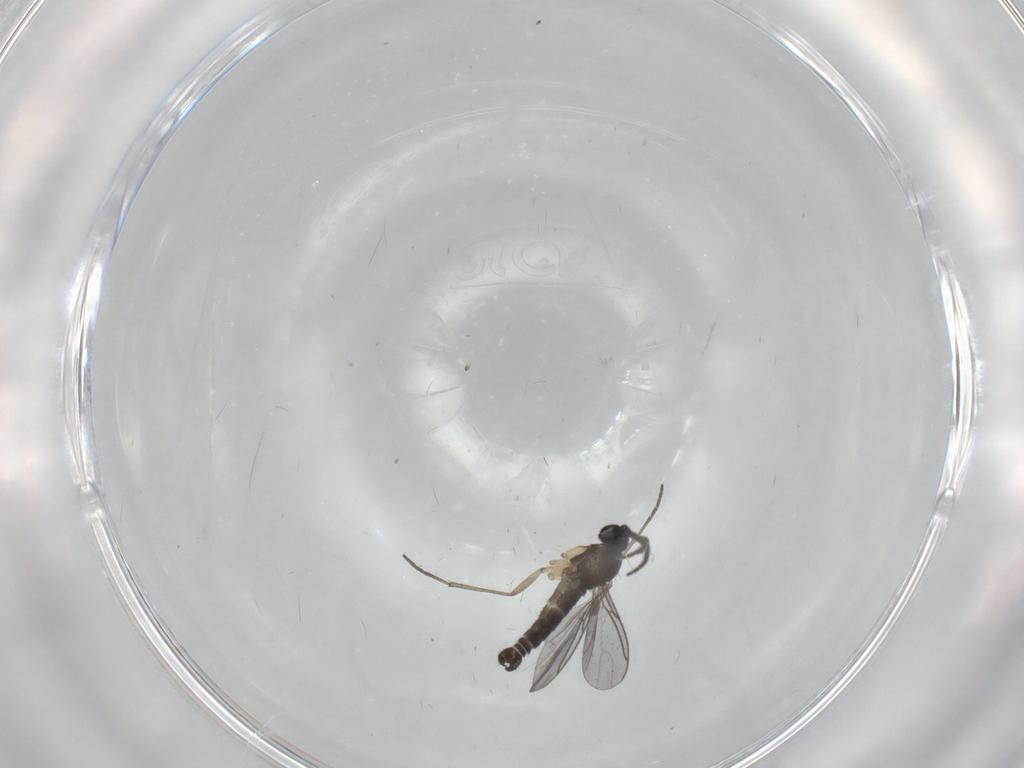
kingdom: Animalia
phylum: Arthropoda
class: Insecta
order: Diptera
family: Sciaridae
